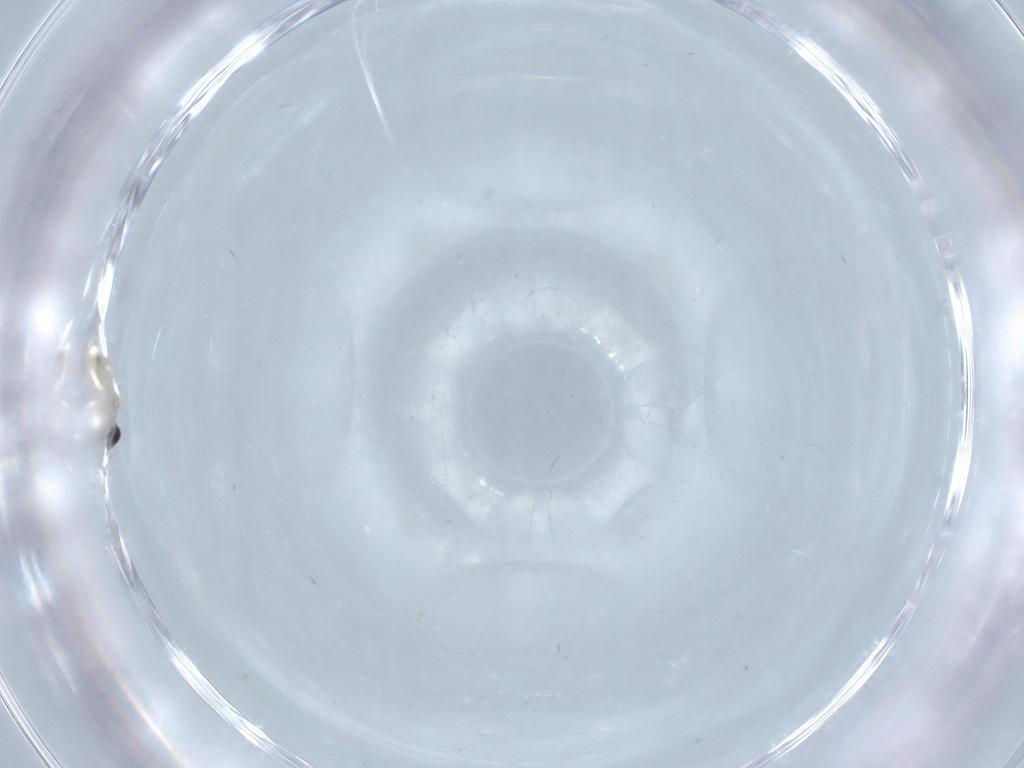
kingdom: Animalia
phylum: Arthropoda
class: Insecta
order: Diptera
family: Cecidomyiidae
